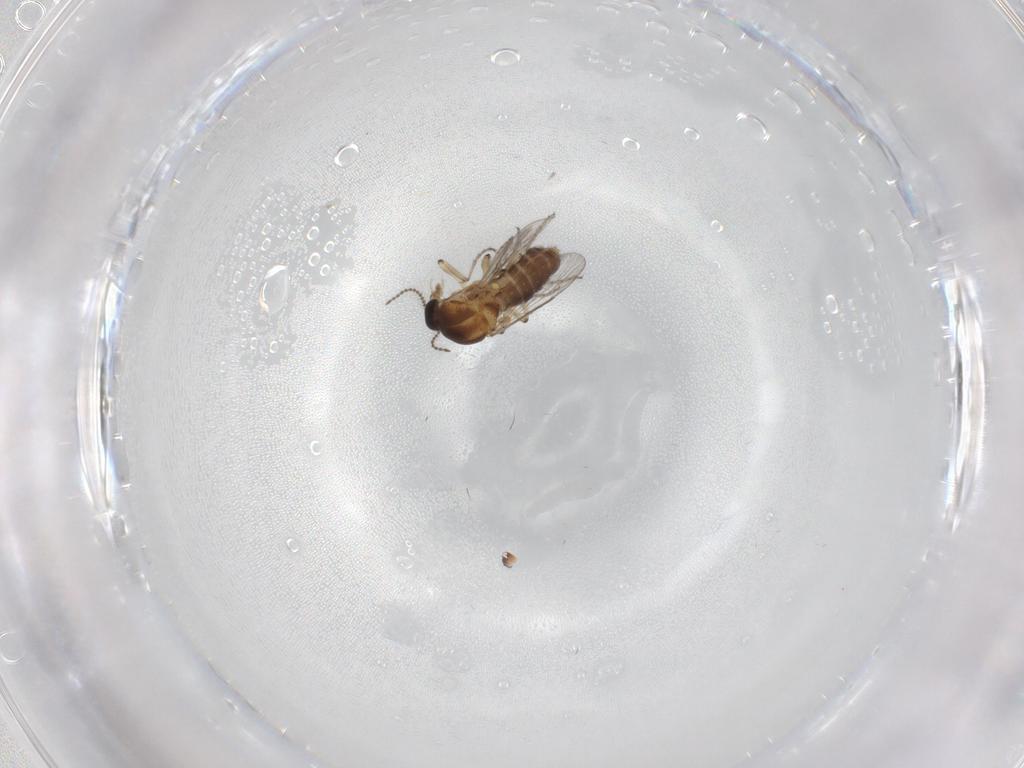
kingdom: Animalia
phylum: Arthropoda
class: Insecta
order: Diptera
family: Ceratopogonidae
